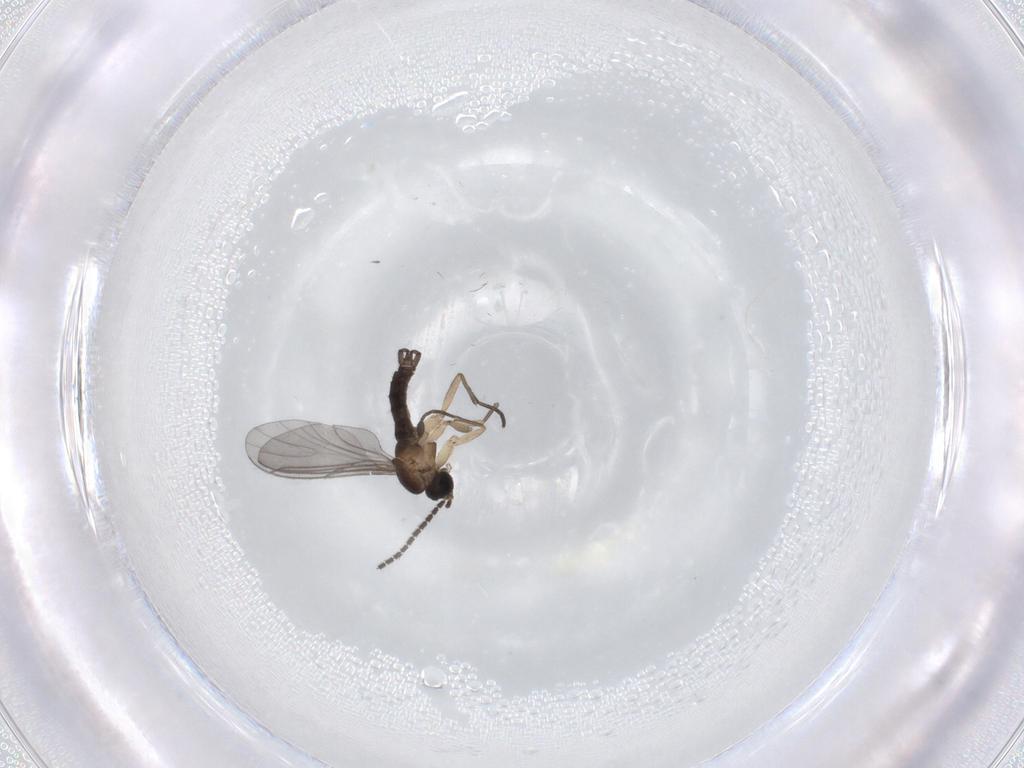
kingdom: Animalia
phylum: Arthropoda
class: Insecta
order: Diptera
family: Sciaridae
